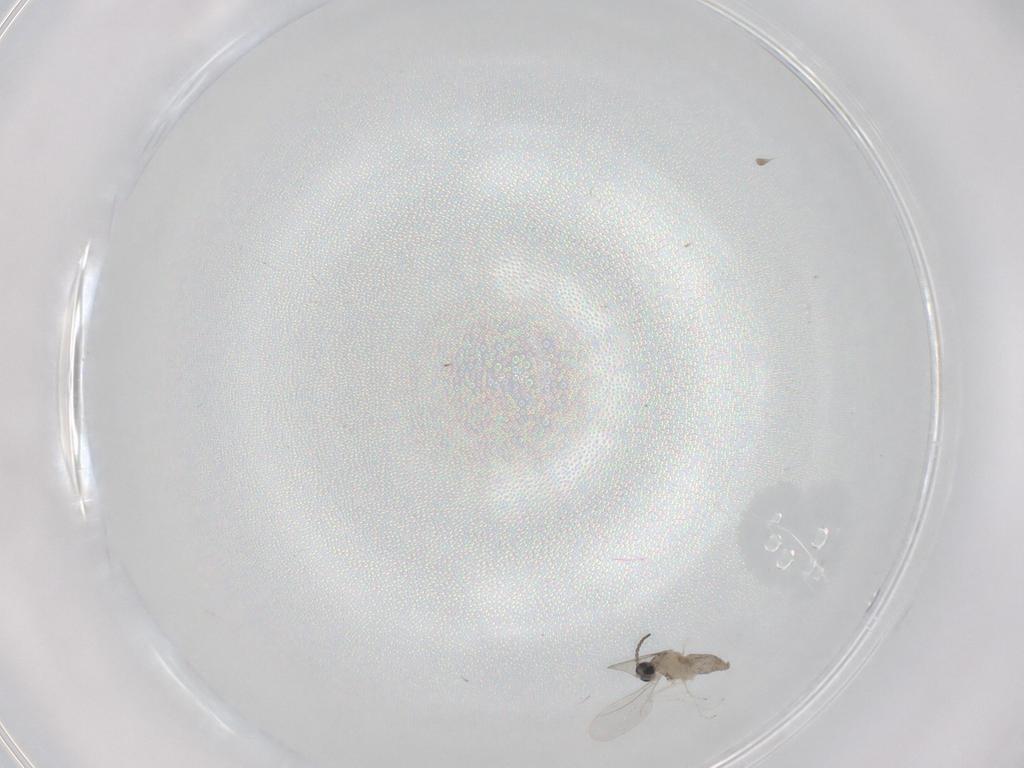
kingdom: Animalia
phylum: Arthropoda
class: Insecta
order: Diptera
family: Cecidomyiidae
